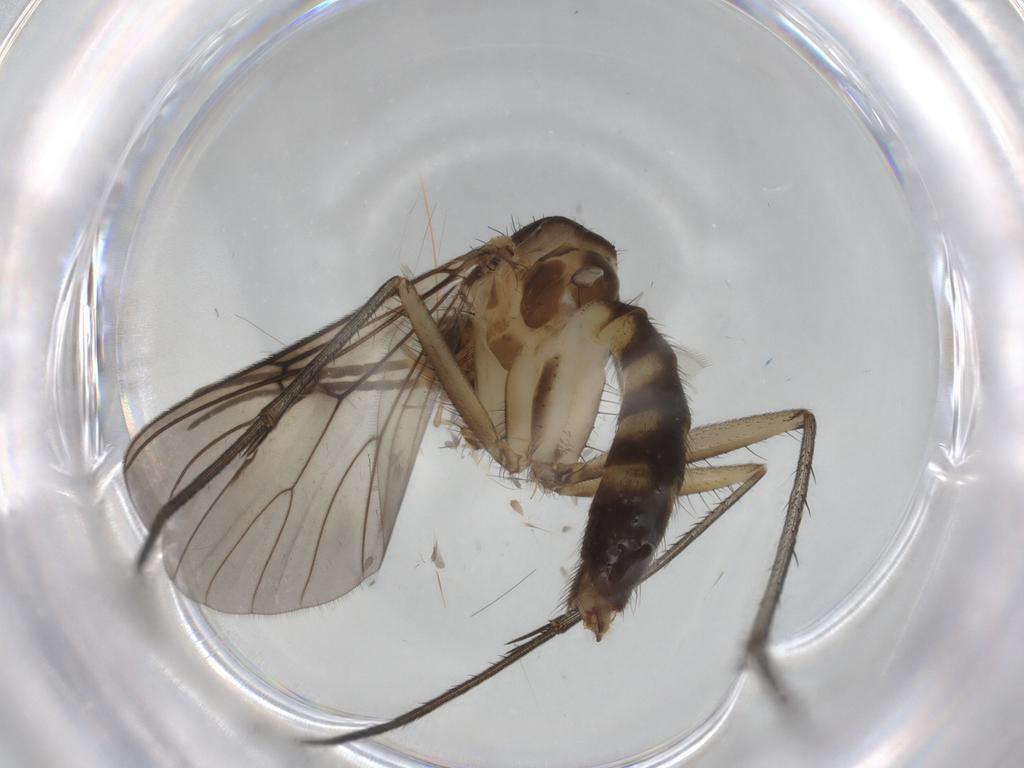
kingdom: Animalia
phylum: Arthropoda
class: Insecta
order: Diptera
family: Mycetophilidae
